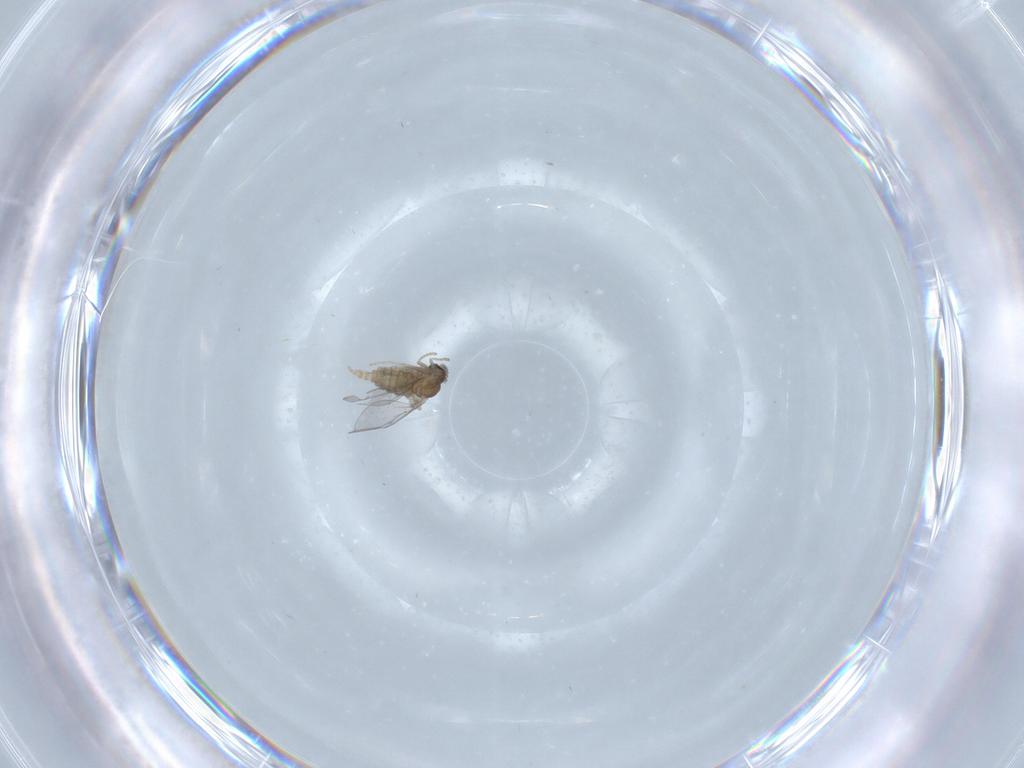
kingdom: Animalia
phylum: Arthropoda
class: Insecta
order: Diptera
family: Cecidomyiidae
